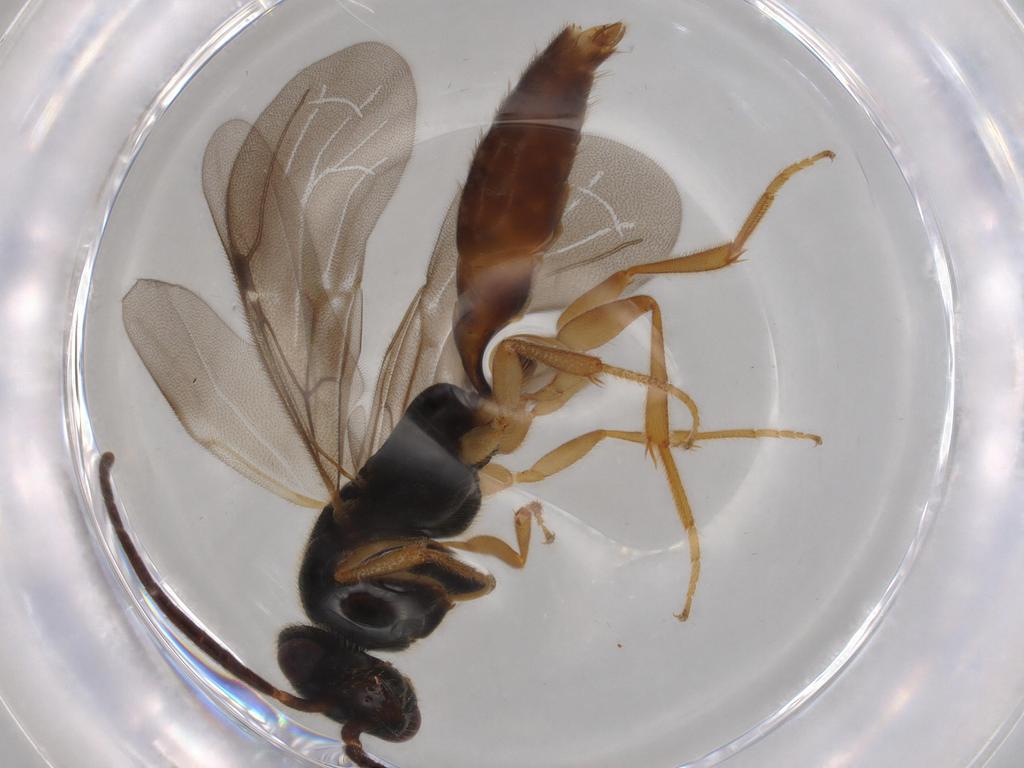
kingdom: Animalia
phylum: Arthropoda
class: Insecta
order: Hymenoptera
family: Bethylidae
